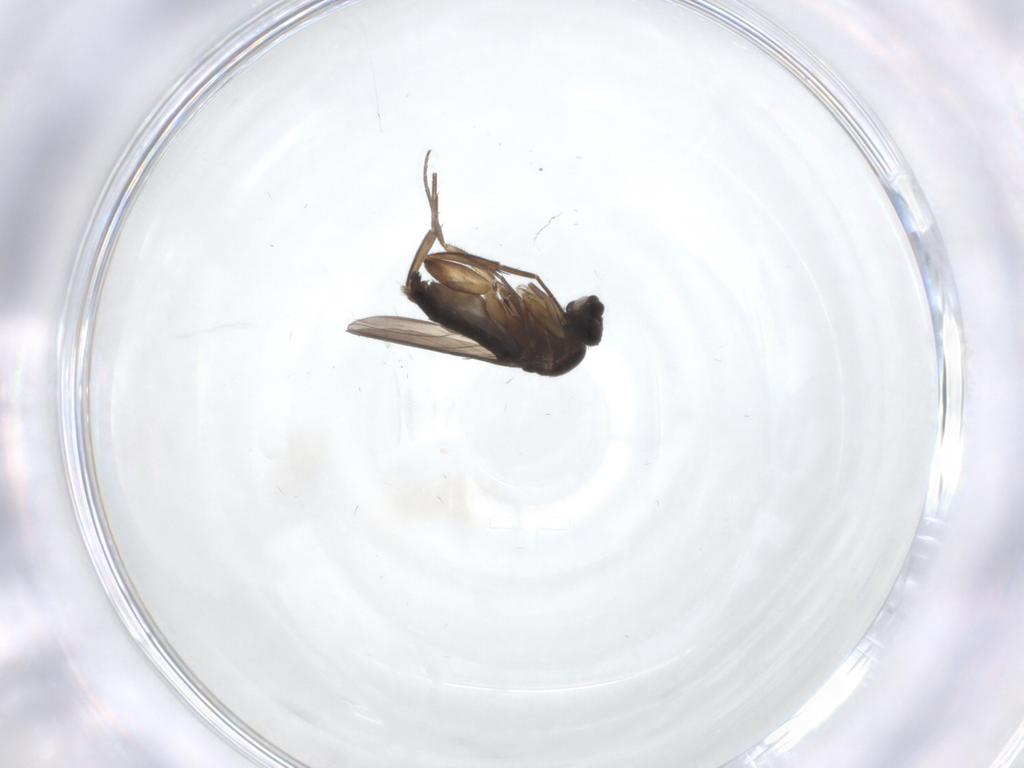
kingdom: Animalia
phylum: Arthropoda
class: Insecta
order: Diptera
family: Phoridae
